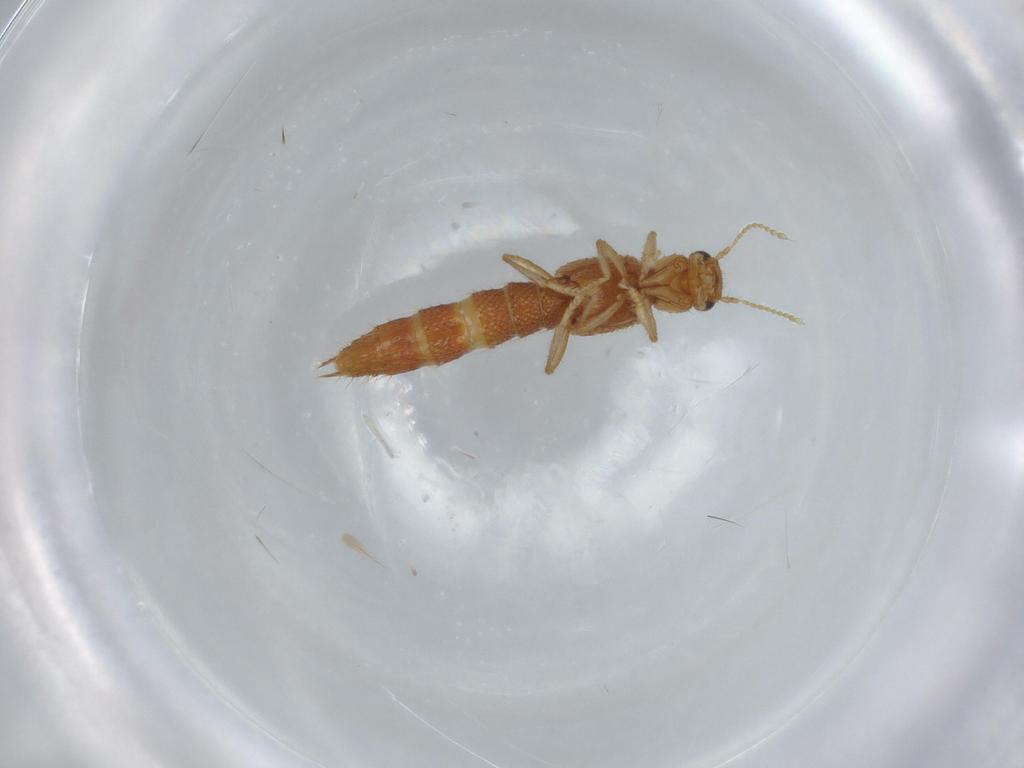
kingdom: Animalia
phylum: Arthropoda
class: Insecta
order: Coleoptera
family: Staphylinidae
